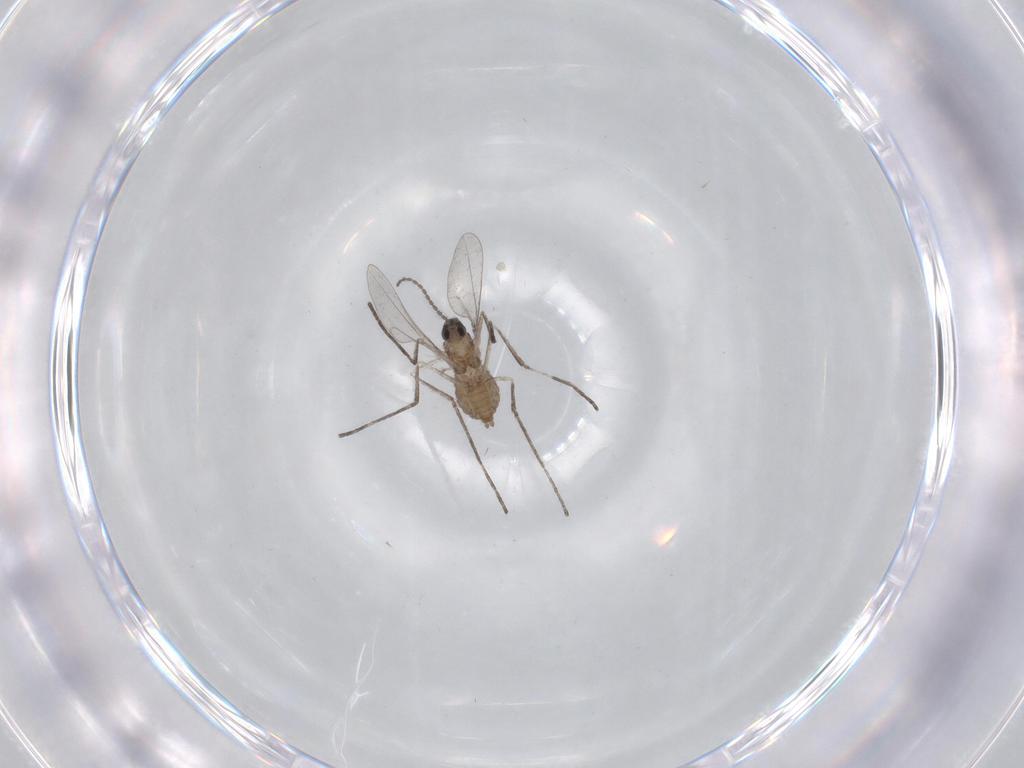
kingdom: Animalia
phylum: Arthropoda
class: Insecta
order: Diptera
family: Cecidomyiidae
